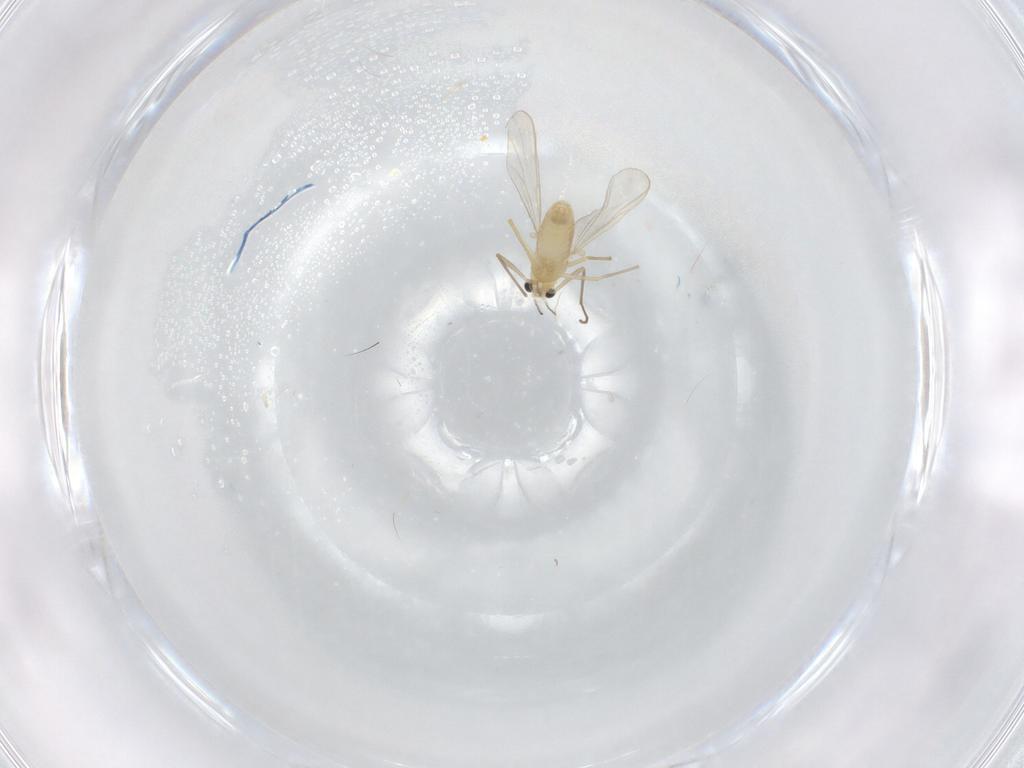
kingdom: Animalia
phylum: Arthropoda
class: Insecta
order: Diptera
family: Chironomidae
